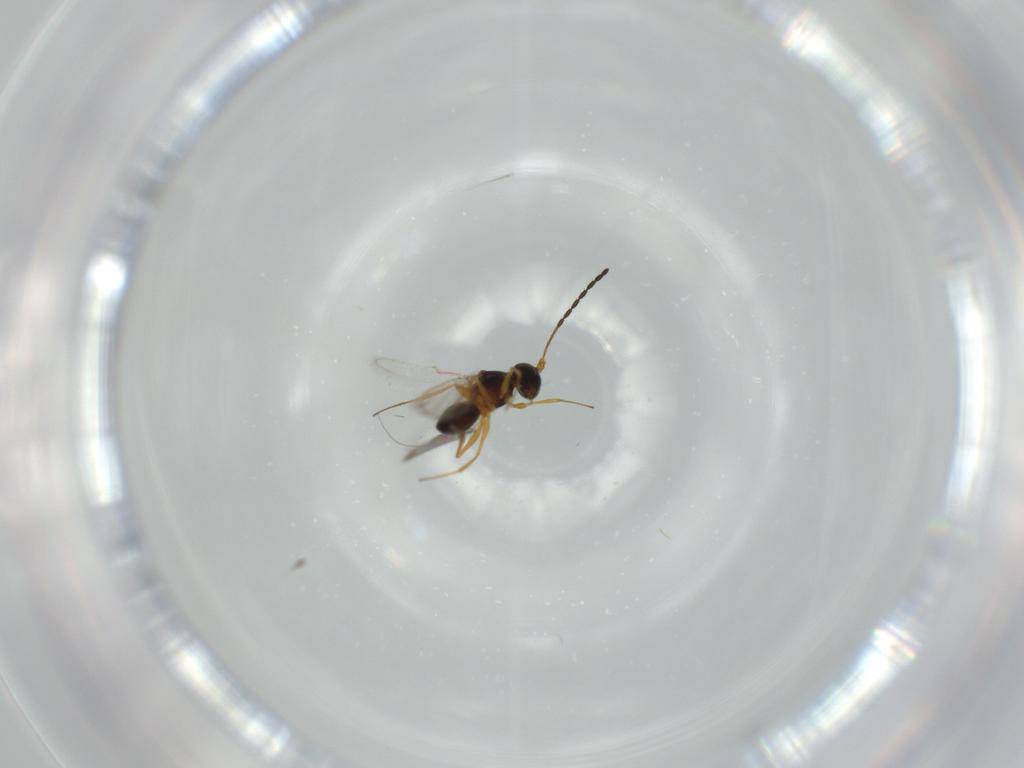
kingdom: Animalia
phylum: Arthropoda
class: Insecta
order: Hymenoptera
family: Figitidae
